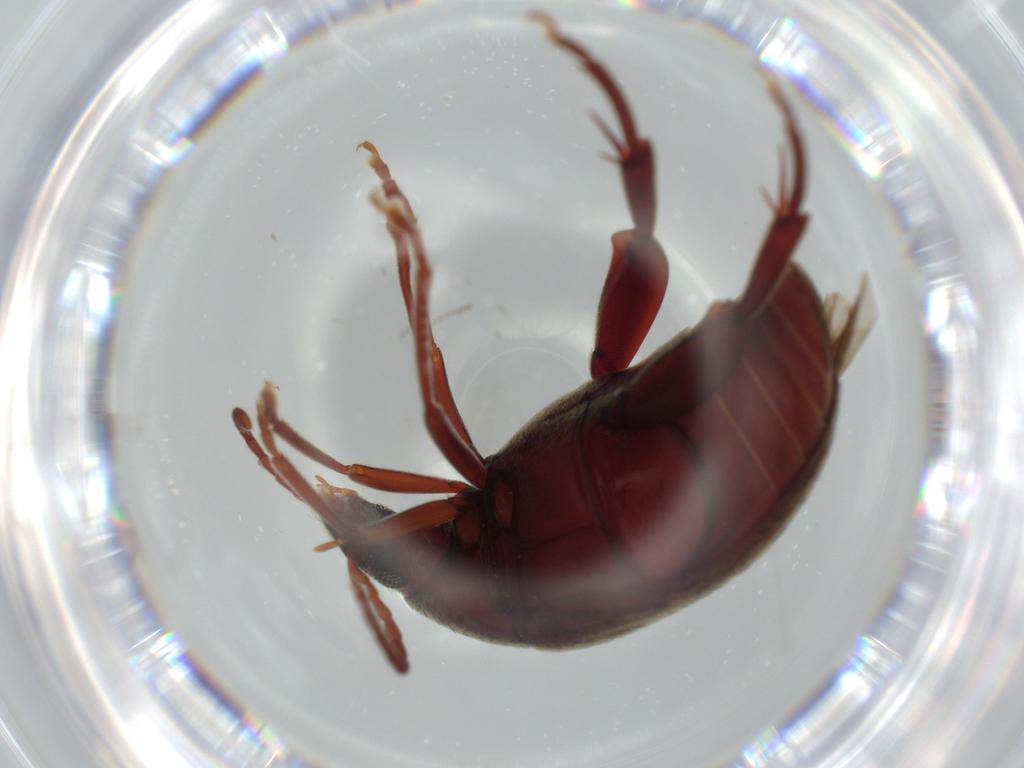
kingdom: Animalia
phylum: Arthropoda
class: Insecta
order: Coleoptera
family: Chrysomelidae
